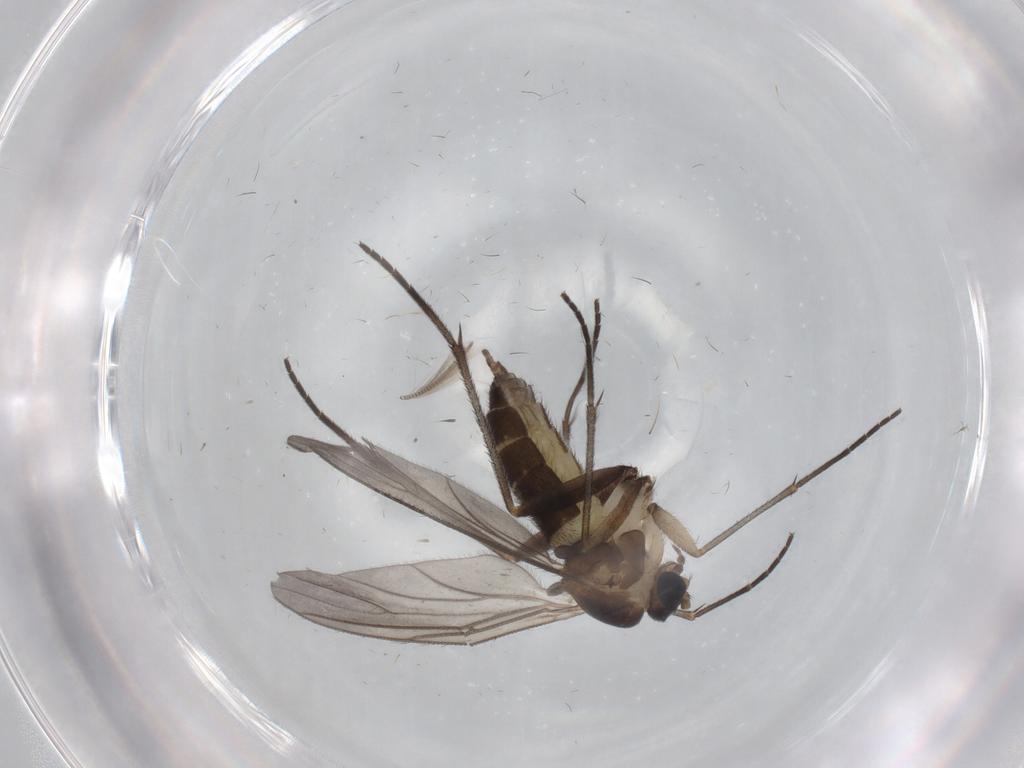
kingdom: Animalia
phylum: Arthropoda
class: Insecta
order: Diptera
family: Sciaridae
